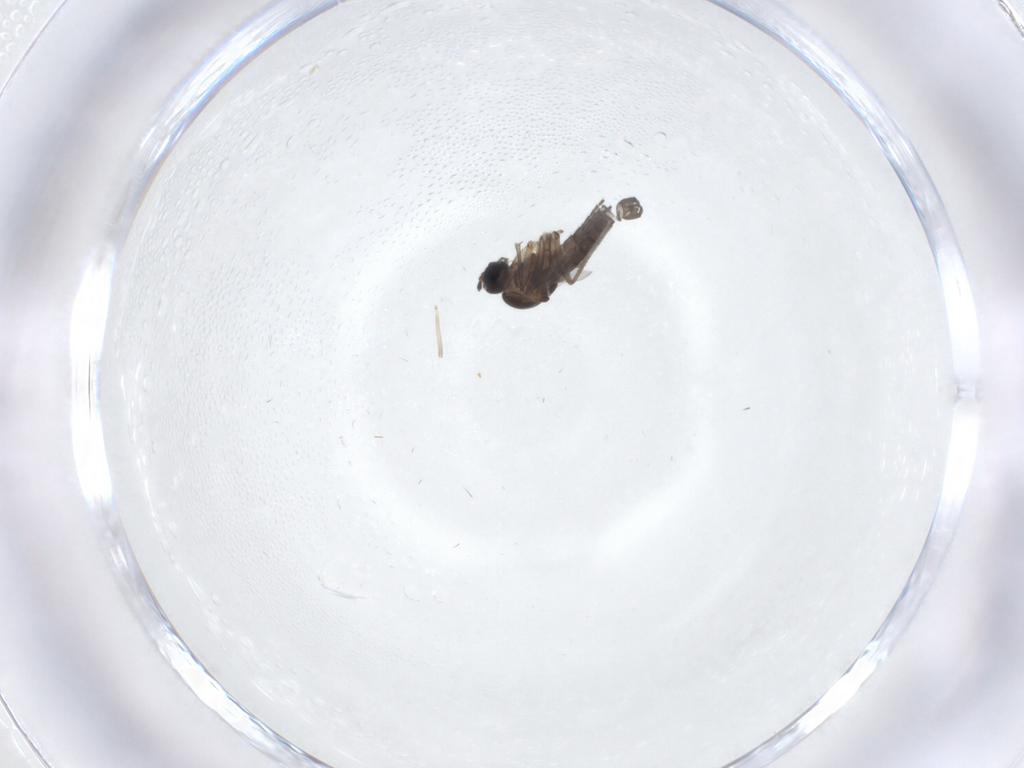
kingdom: Animalia
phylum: Arthropoda
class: Insecta
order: Diptera
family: Sciaridae
